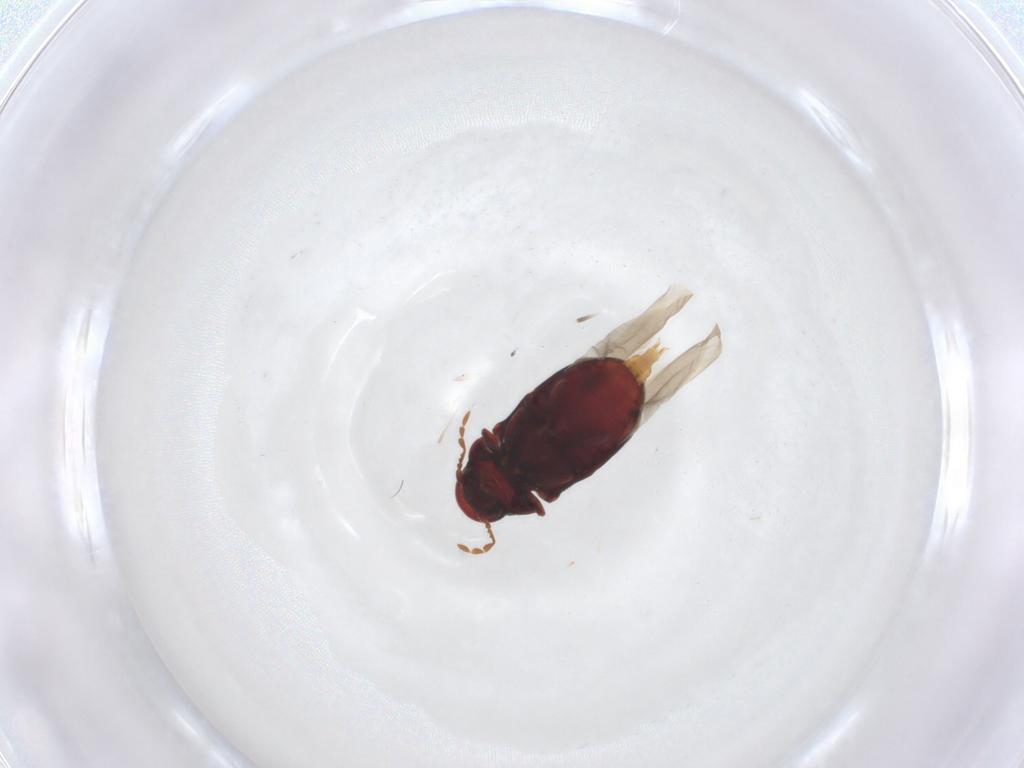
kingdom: Animalia
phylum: Arthropoda
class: Insecta
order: Coleoptera
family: Ptinidae
